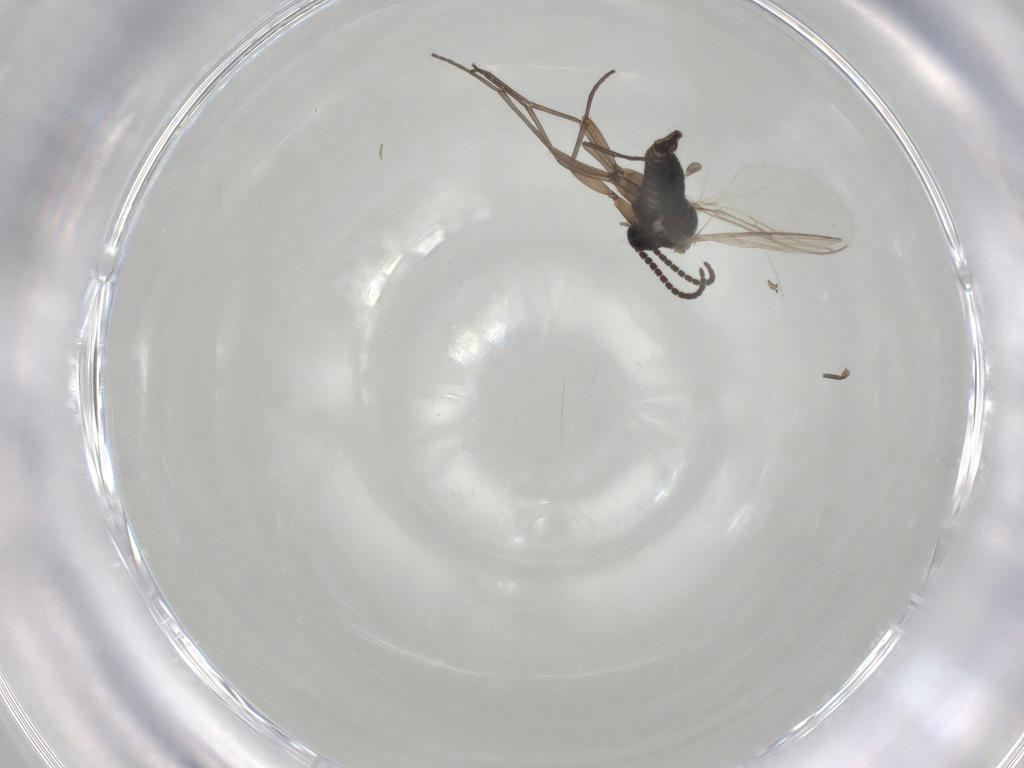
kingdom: Animalia
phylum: Arthropoda
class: Insecta
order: Diptera
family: Sciaridae
